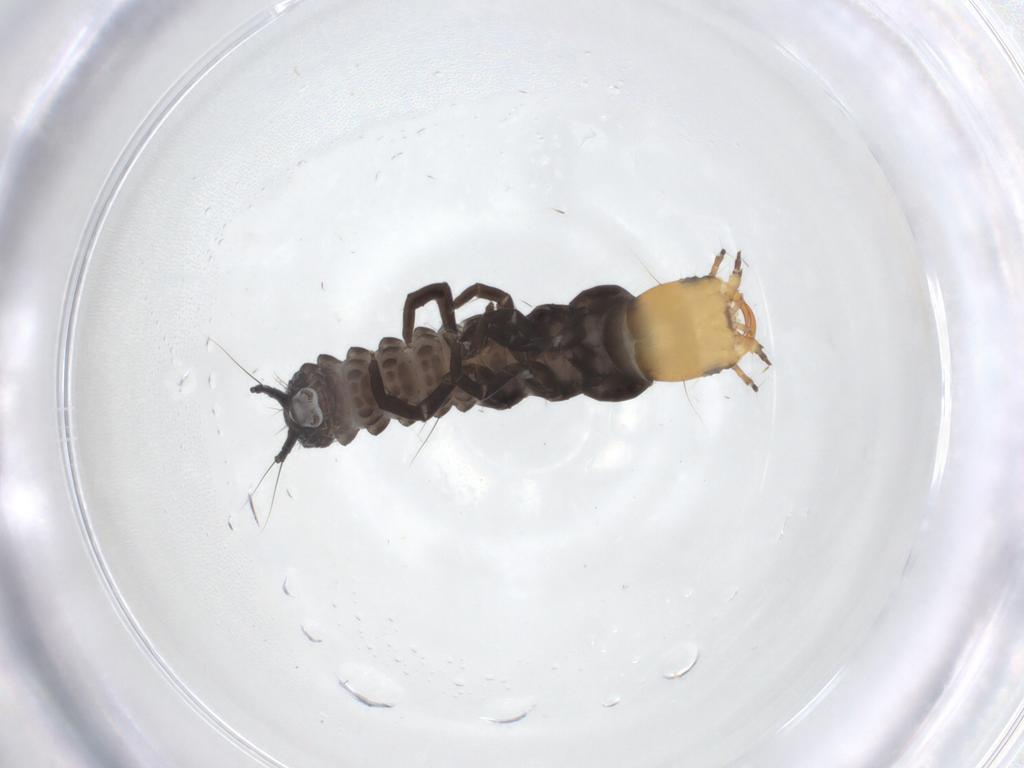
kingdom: Animalia
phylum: Arthropoda
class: Insecta
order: Coleoptera
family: Carabidae
